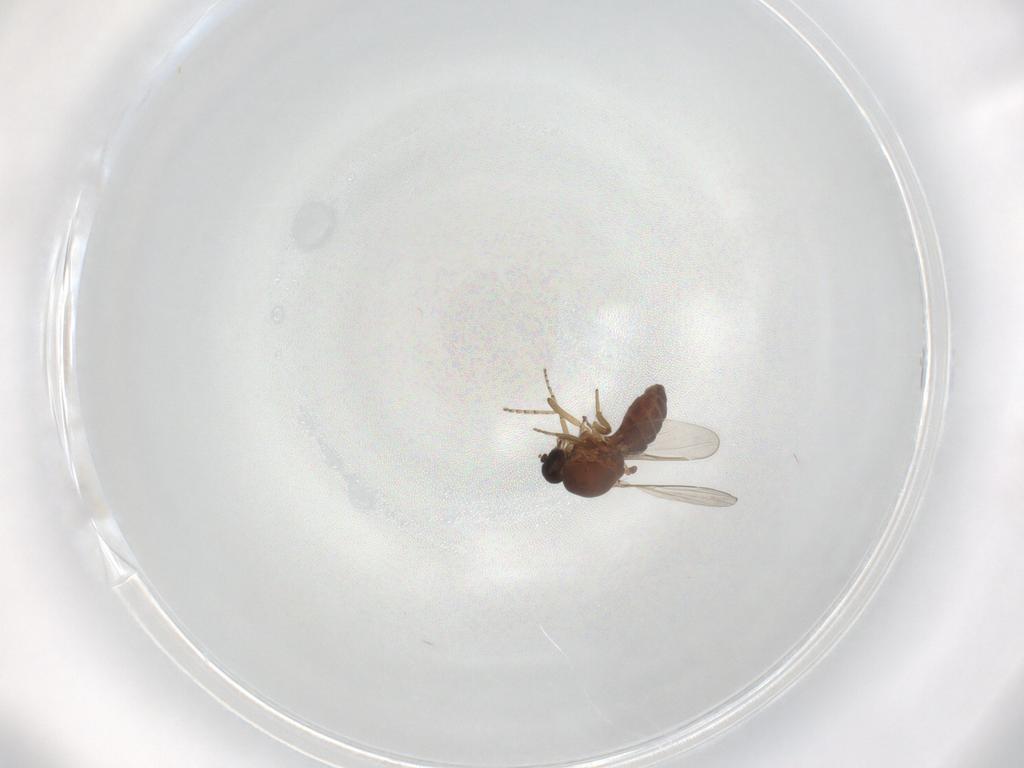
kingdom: Animalia
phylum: Arthropoda
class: Insecta
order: Diptera
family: Ceratopogonidae
